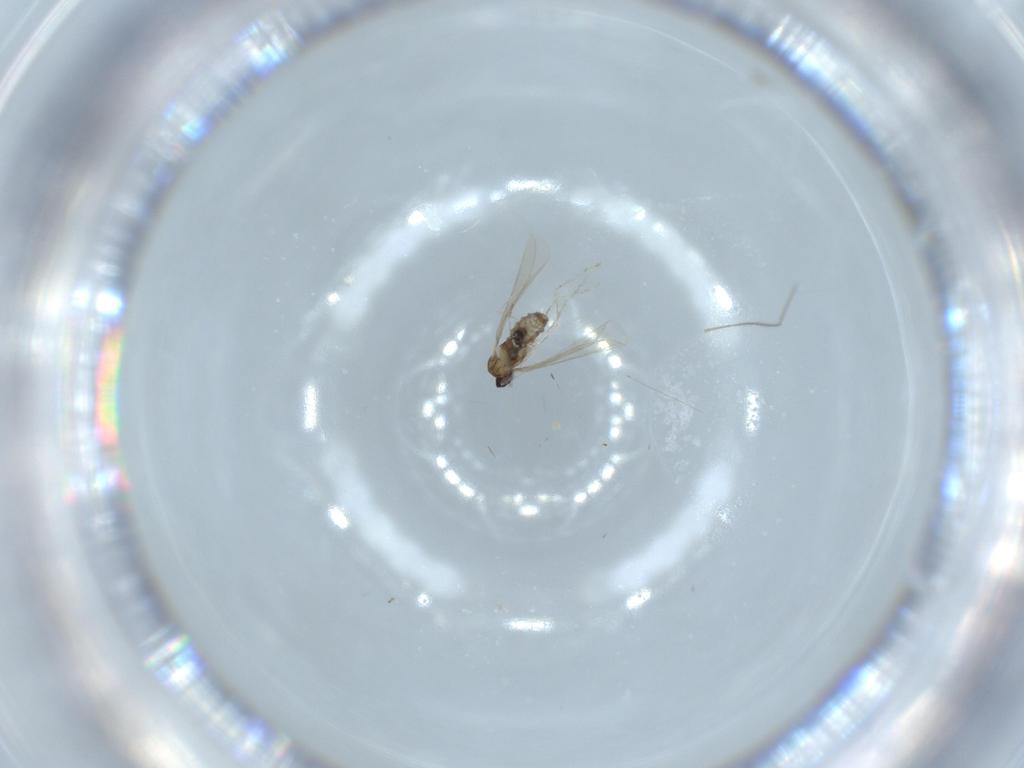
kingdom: Animalia
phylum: Arthropoda
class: Insecta
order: Diptera
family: Cecidomyiidae
